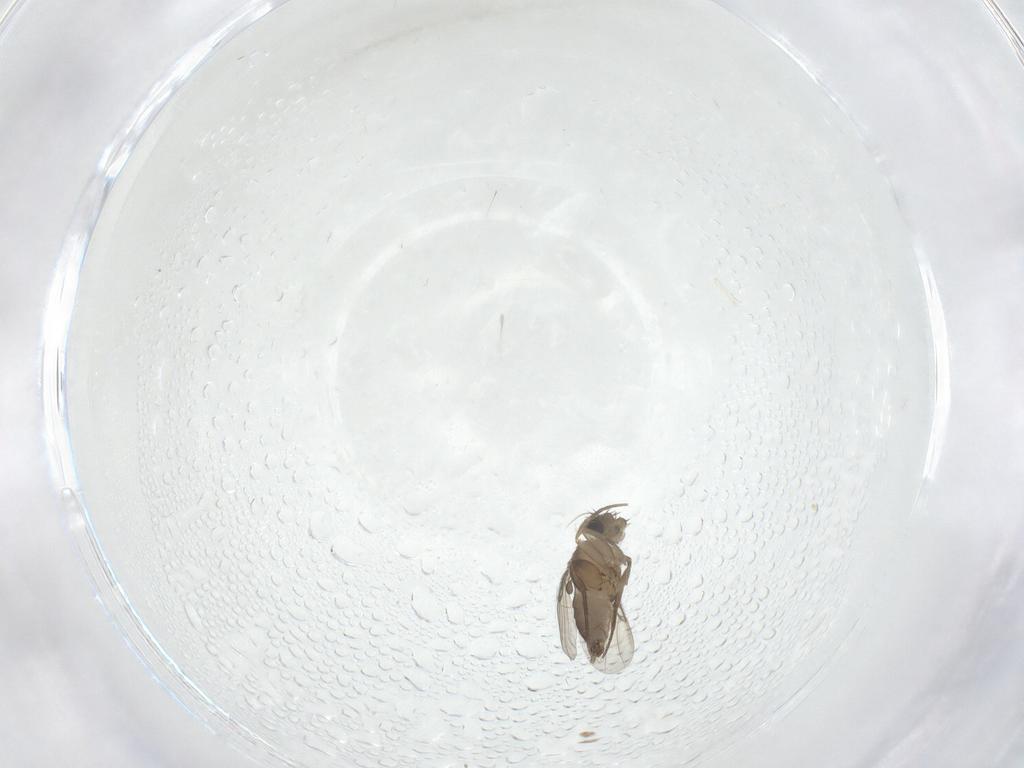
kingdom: Animalia
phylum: Arthropoda
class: Insecta
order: Diptera
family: Phoridae
